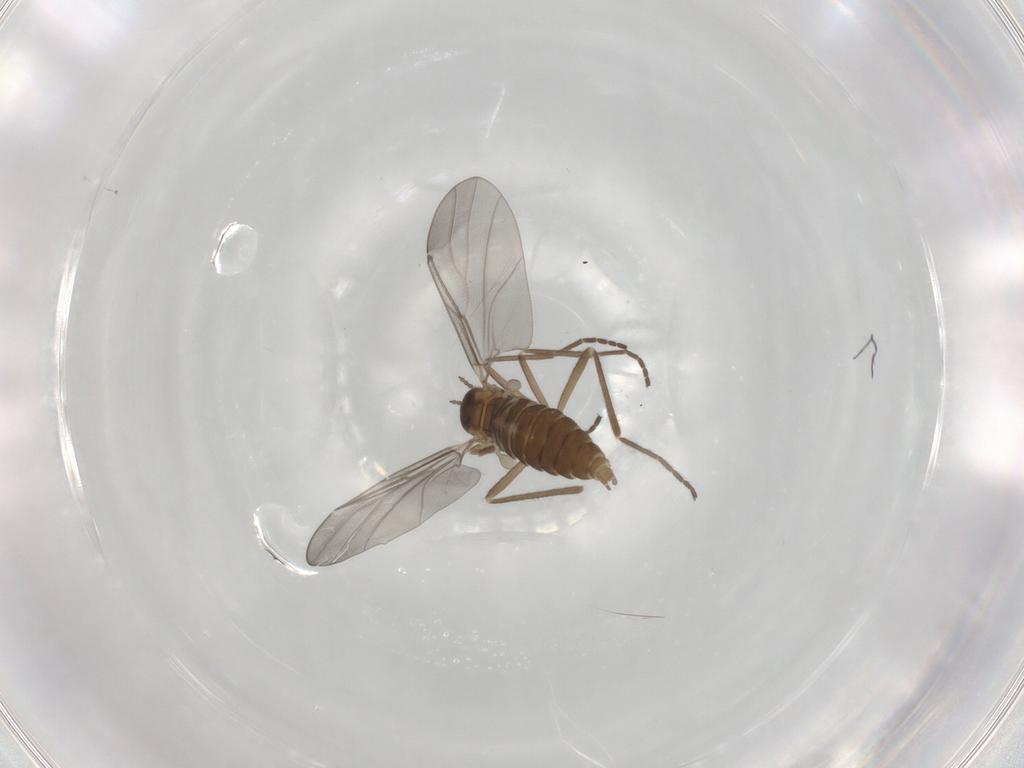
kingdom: Animalia
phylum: Arthropoda
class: Insecta
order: Diptera
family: Cecidomyiidae
